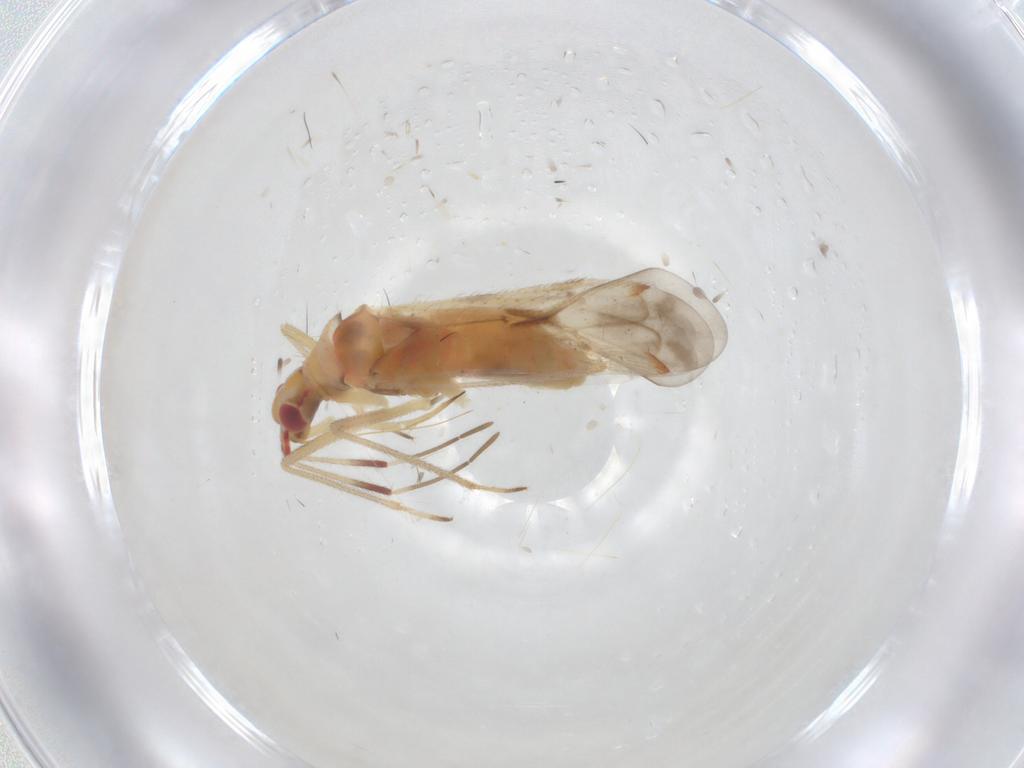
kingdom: Animalia
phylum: Arthropoda
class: Insecta
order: Hemiptera
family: Miridae
